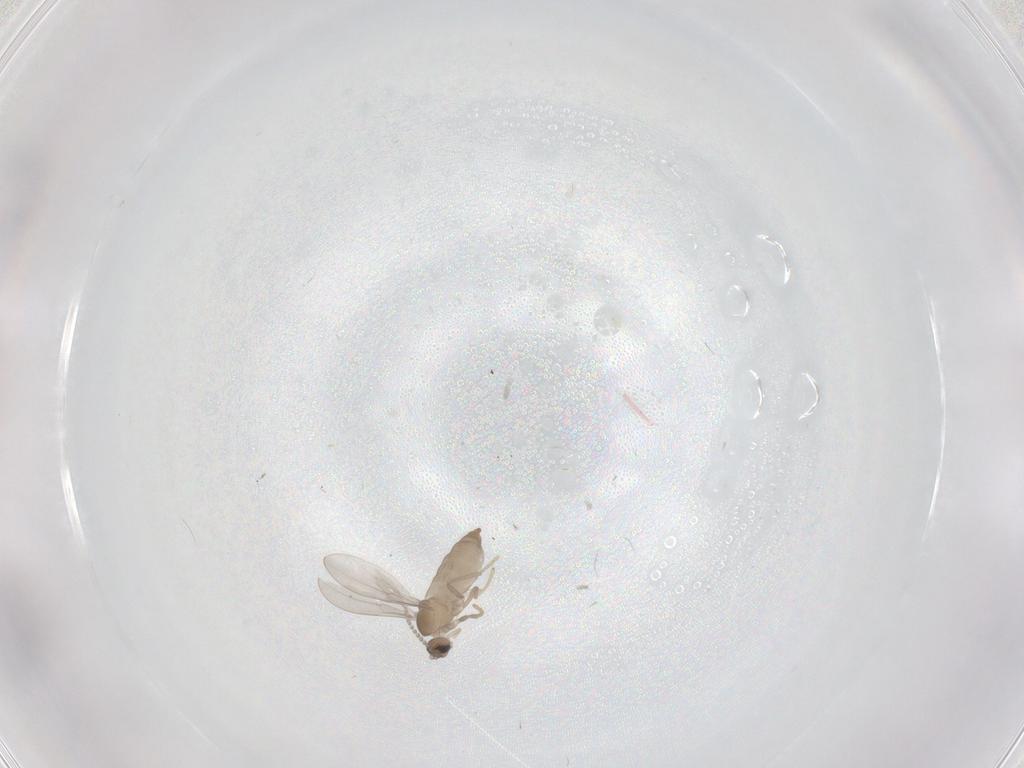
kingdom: Animalia
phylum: Arthropoda
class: Insecta
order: Diptera
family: Cecidomyiidae
